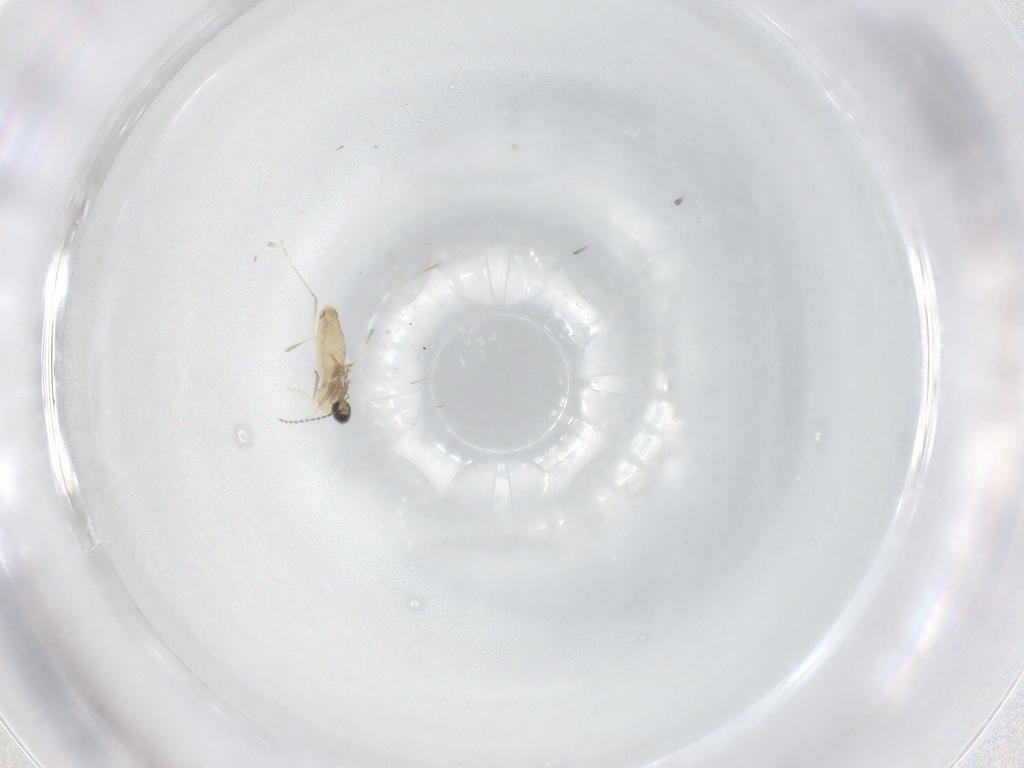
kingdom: Animalia
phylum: Arthropoda
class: Insecta
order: Diptera
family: Cecidomyiidae
